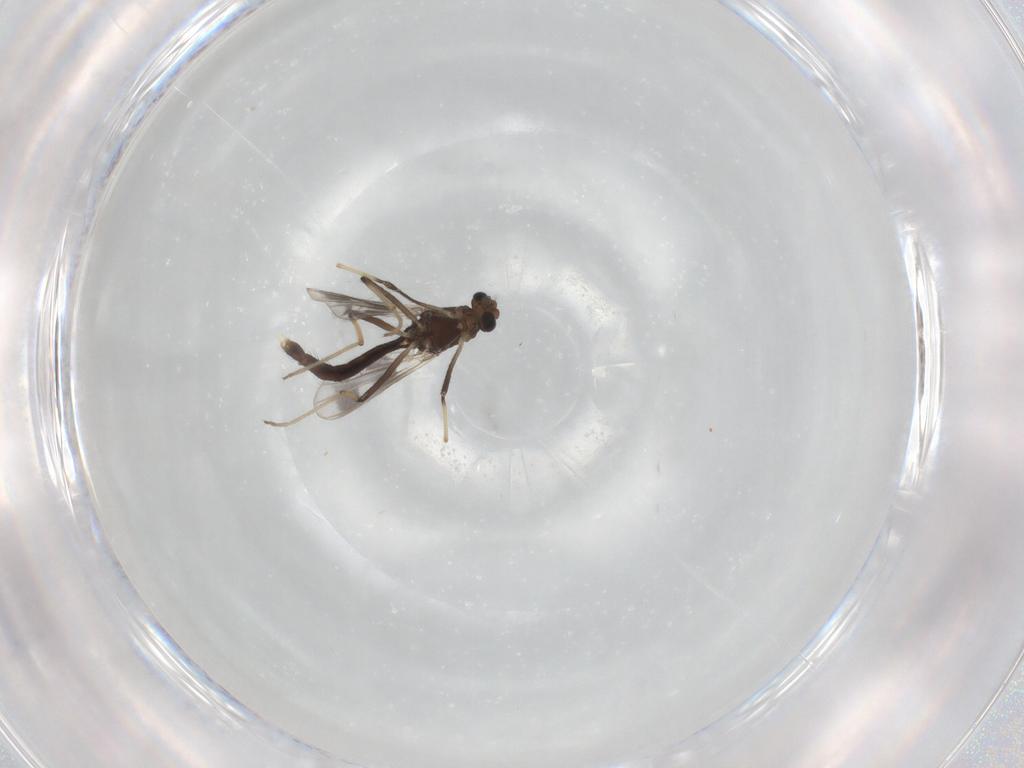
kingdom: Animalia
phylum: Arthropoda
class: Insecta
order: Diptera
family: Chironomidae
